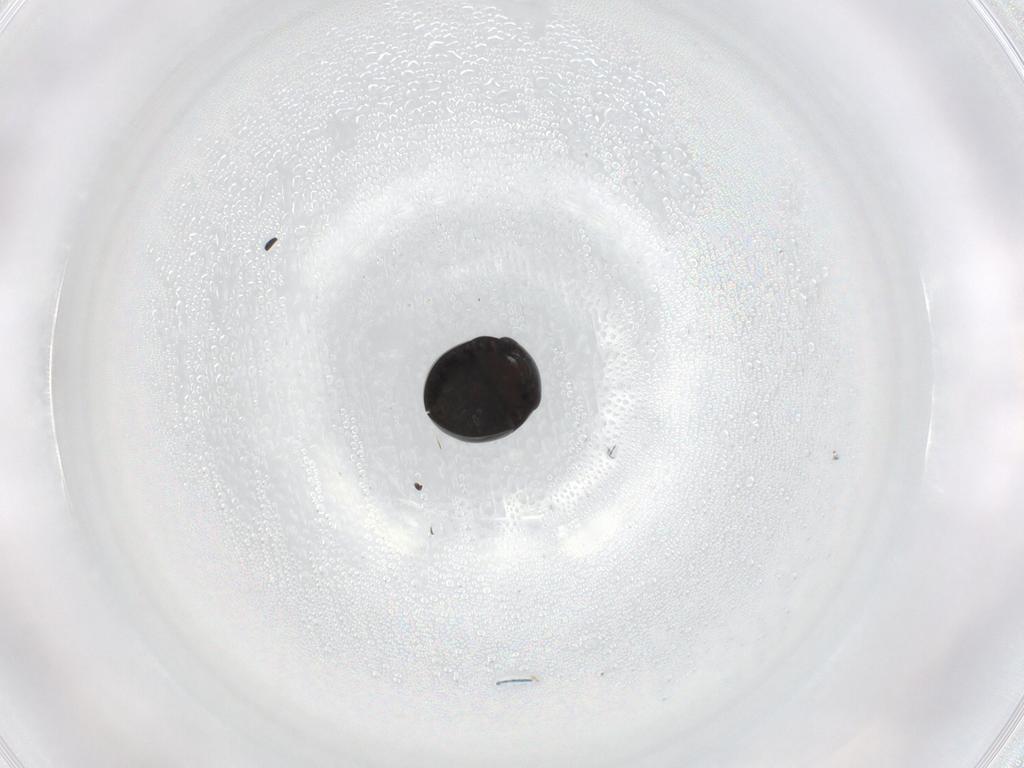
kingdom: Animalia
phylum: Arthropoda
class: Insecta
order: Coleoptera
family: Cybocephalidae
